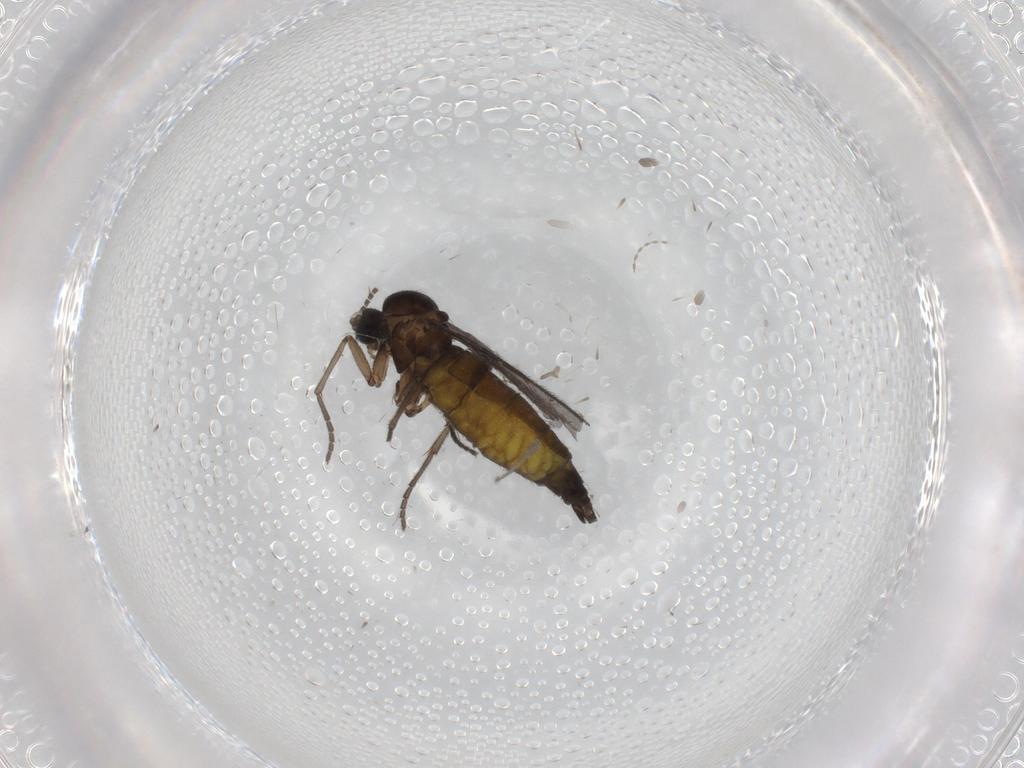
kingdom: Animalia
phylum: Arthropoda
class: Insecta
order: Diptera
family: Sciaridae
